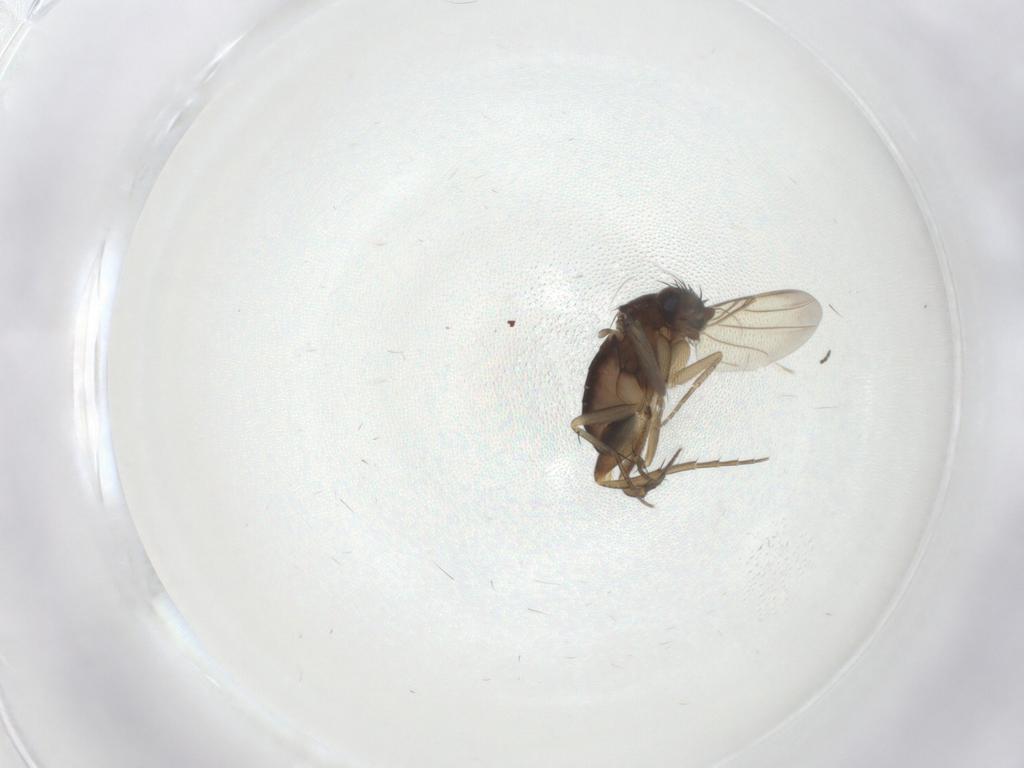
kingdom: Animalia
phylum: Arthropoda
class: Insecta
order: Diptera
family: Phoridae
